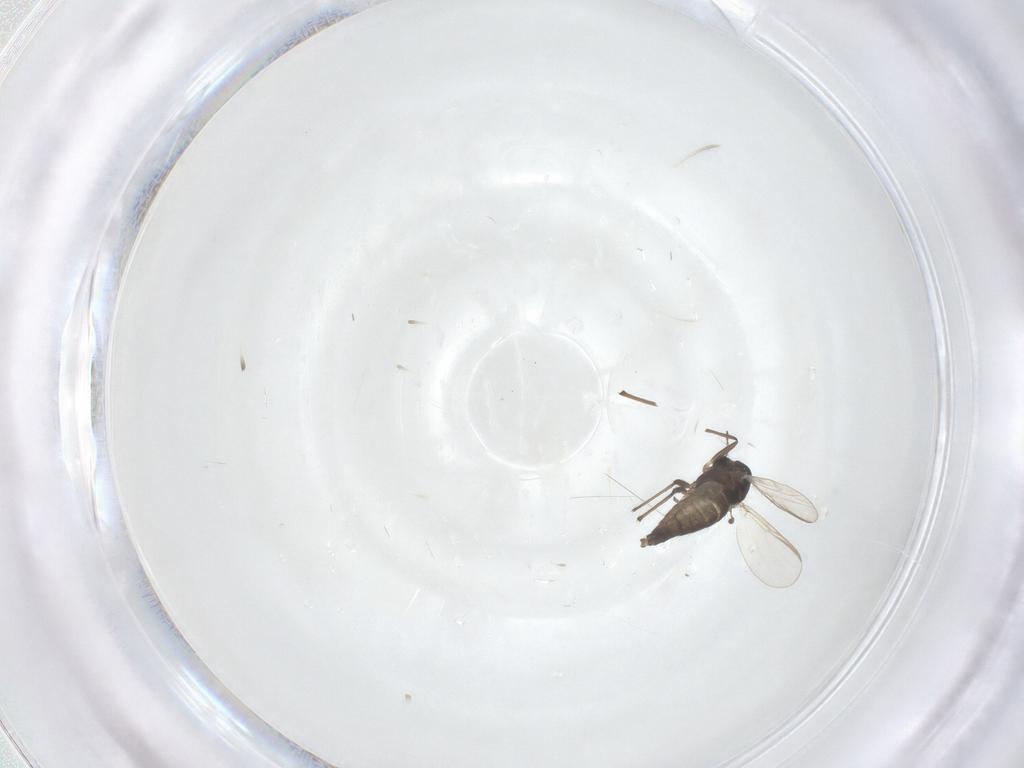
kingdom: Animalia
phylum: Arthropoda
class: Insecta
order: Diptera
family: Chironomidae
